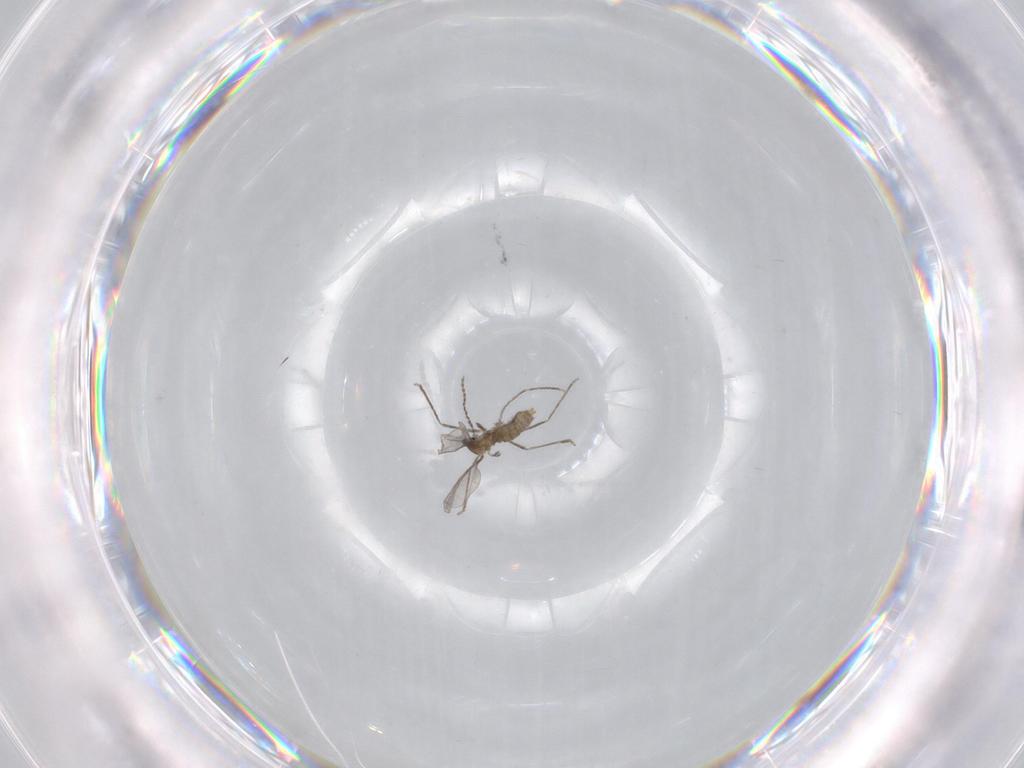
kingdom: Animalia
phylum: Arthropoda
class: Insecta
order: Diptera
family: Cecidomyiidae
